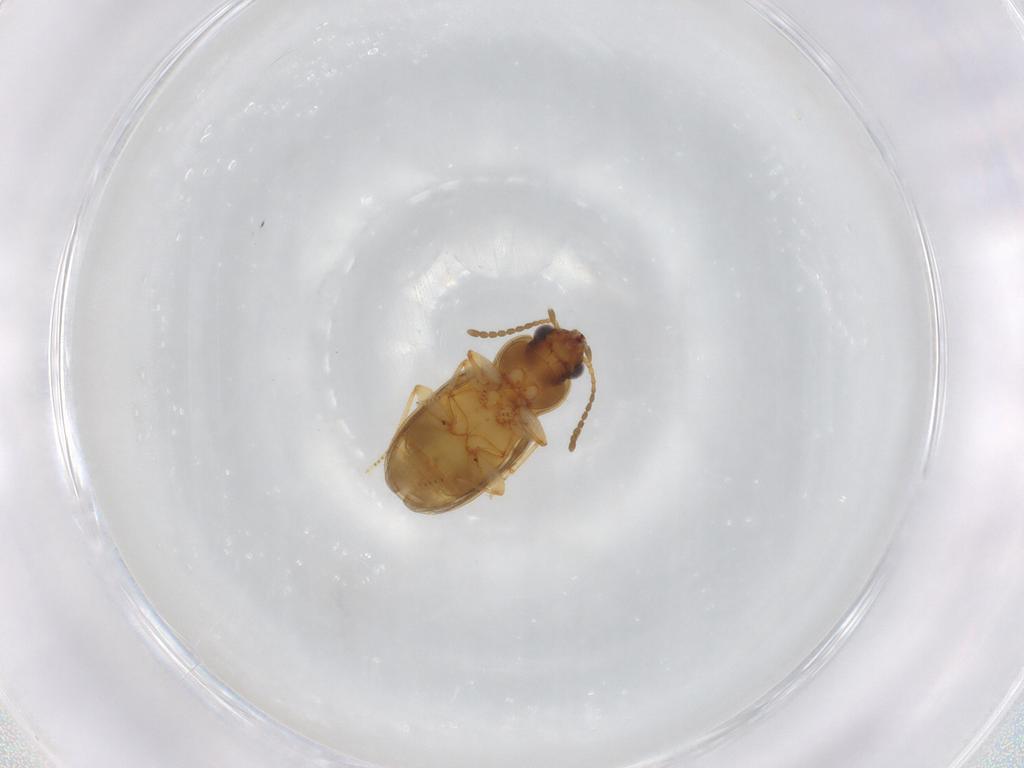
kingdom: Animalia
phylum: Arthropoda
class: Insecta
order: Coleoptera
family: Carabidae
